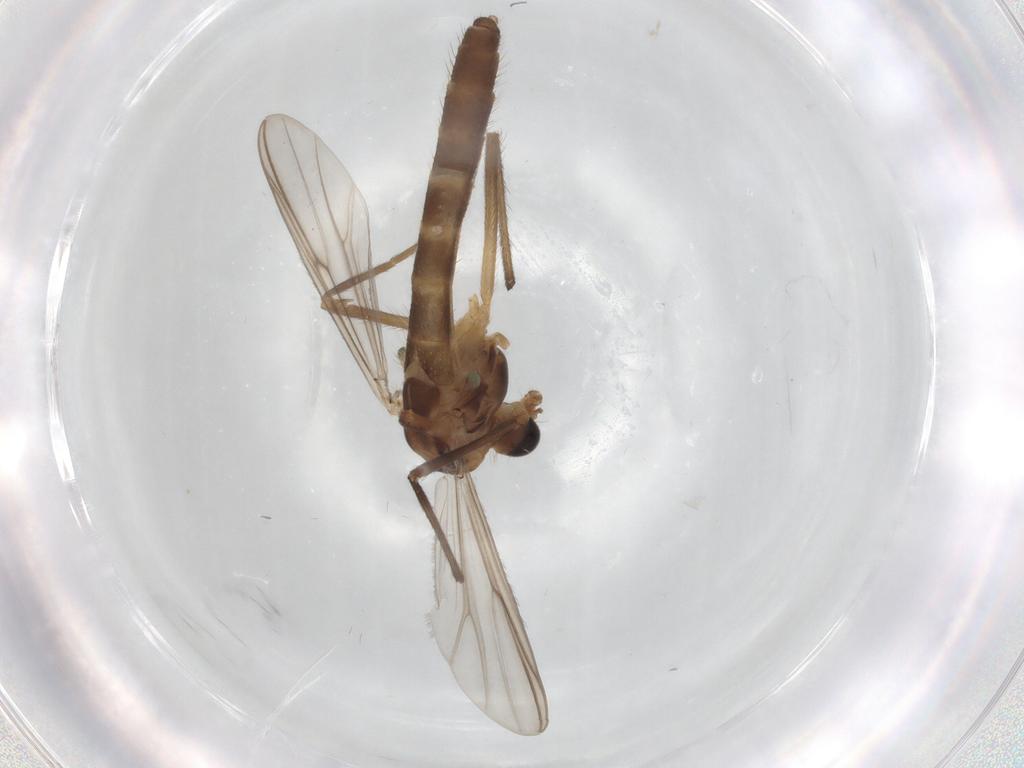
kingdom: Animalia
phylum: Arthropoda
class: Insecta
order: Diptera
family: Chironomidae
